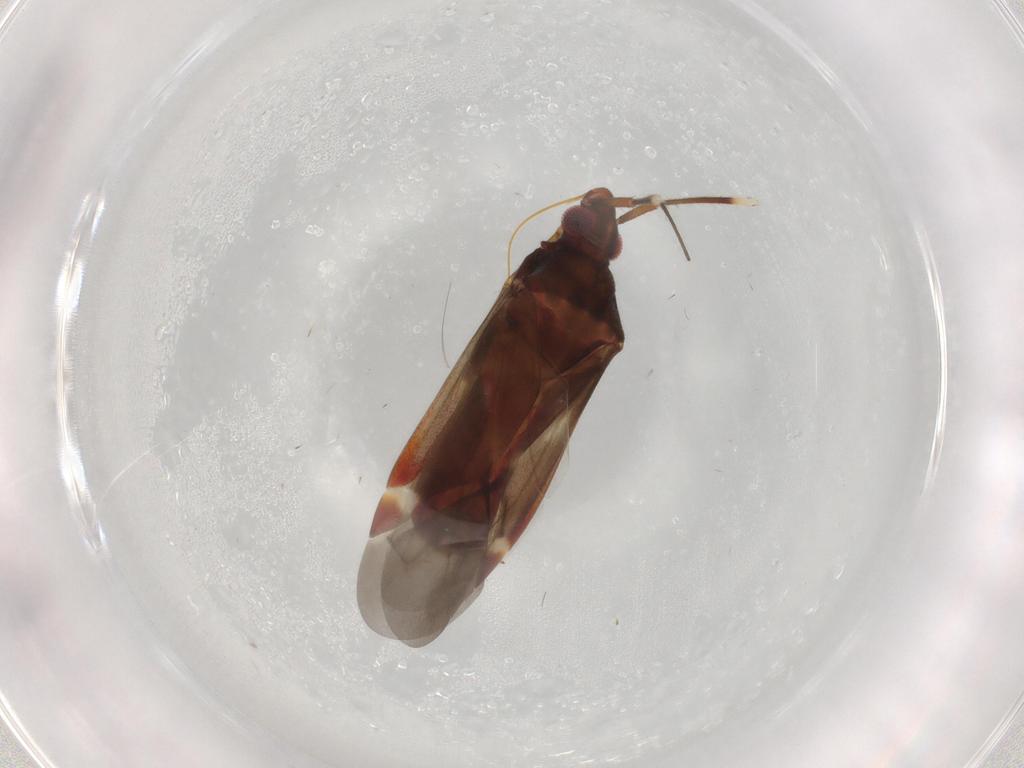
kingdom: Animalia
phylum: Arthropoda
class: Insecta
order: Hemiptera
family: Miridae
